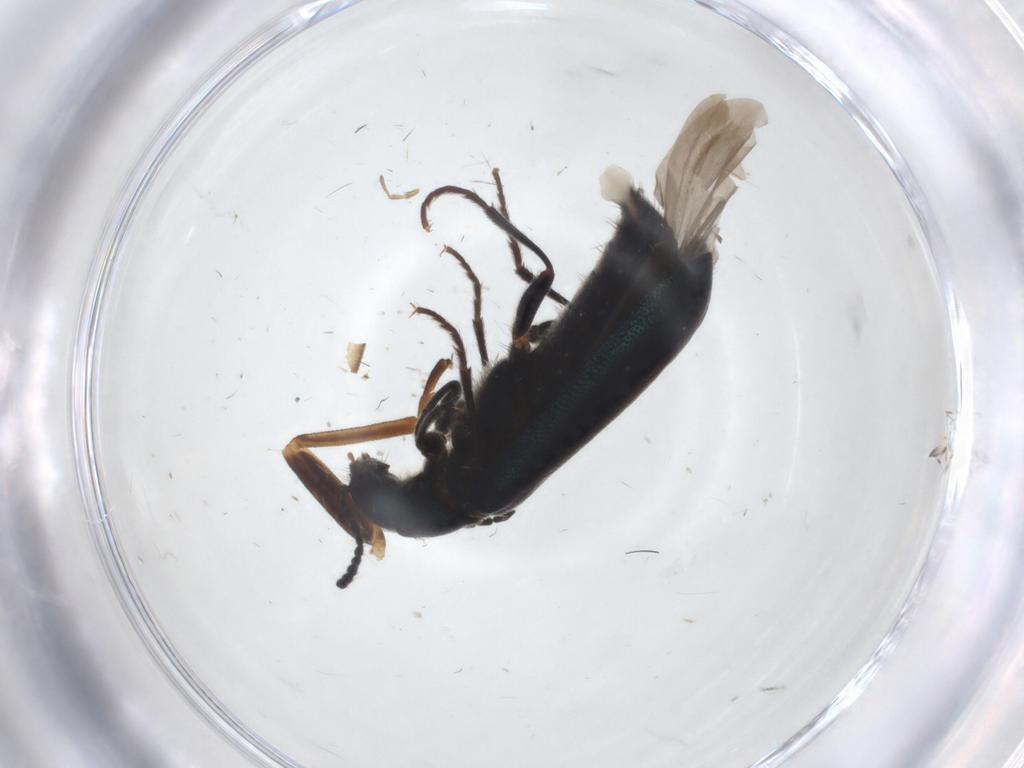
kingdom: Animalia
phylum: Arthropoda
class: Insecta
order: Coleoptera
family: Melyridae
